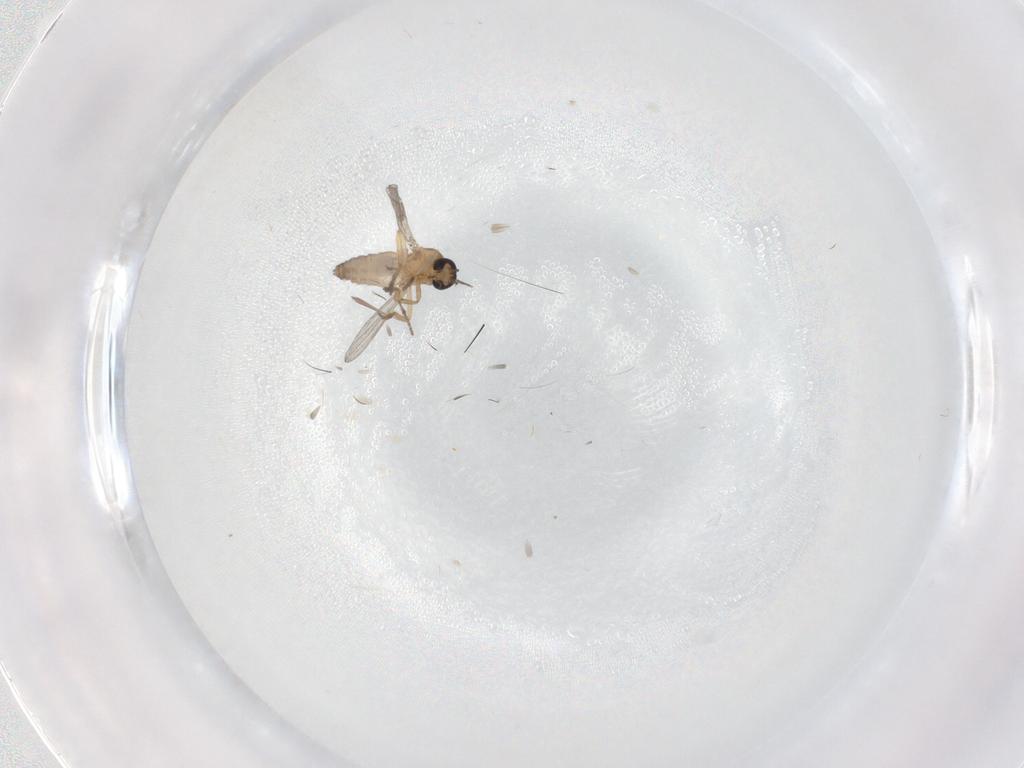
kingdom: Animalia
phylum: Arthropoda
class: Insecta
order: Diptera
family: Cecidomyiidae
